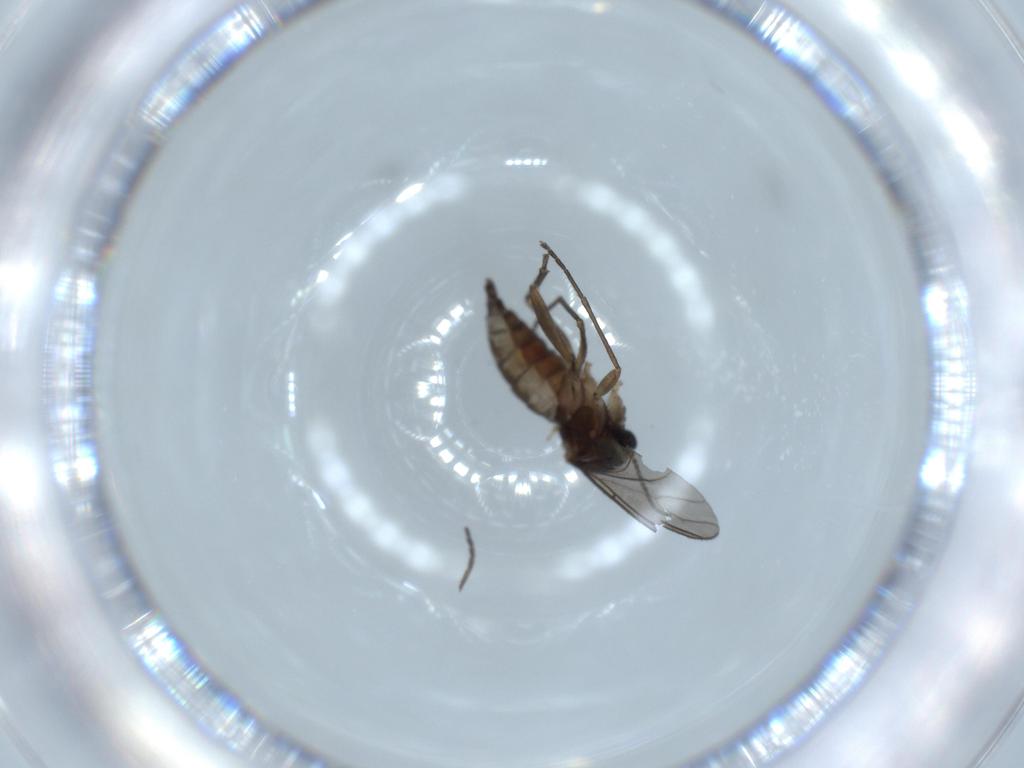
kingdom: Animalia
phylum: Arthropoda
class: Insecta
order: Diptera
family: Sciaridae
